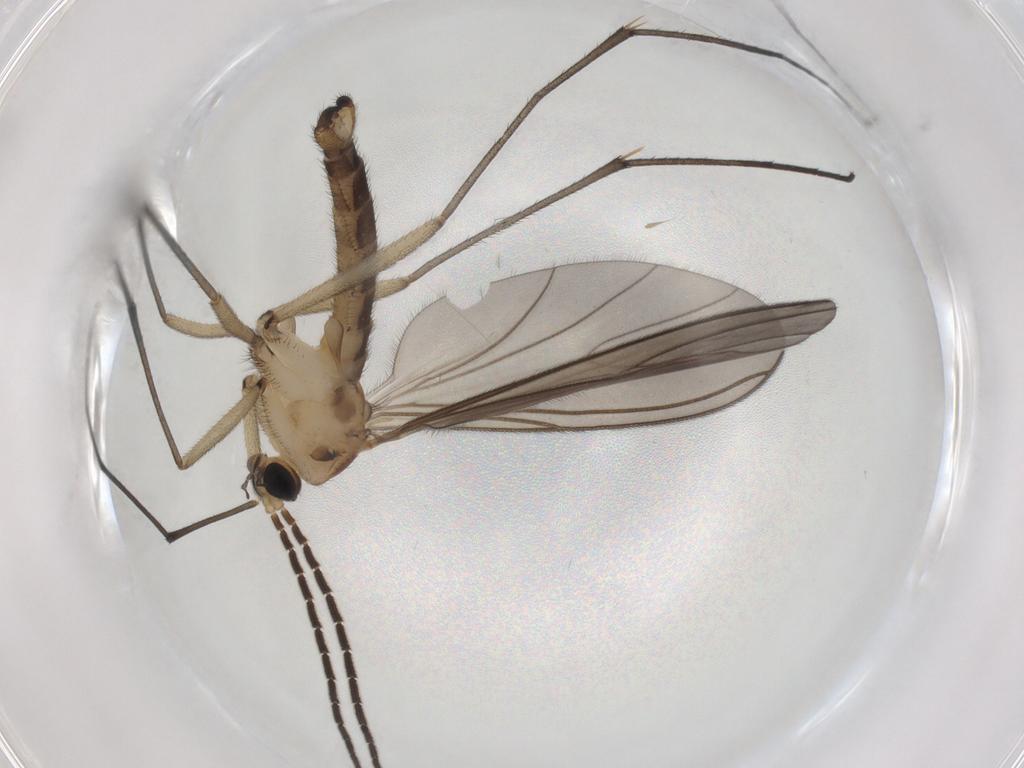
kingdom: Animalia
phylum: Arthropoda
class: Insecta
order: Diptera
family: Sciaridae
